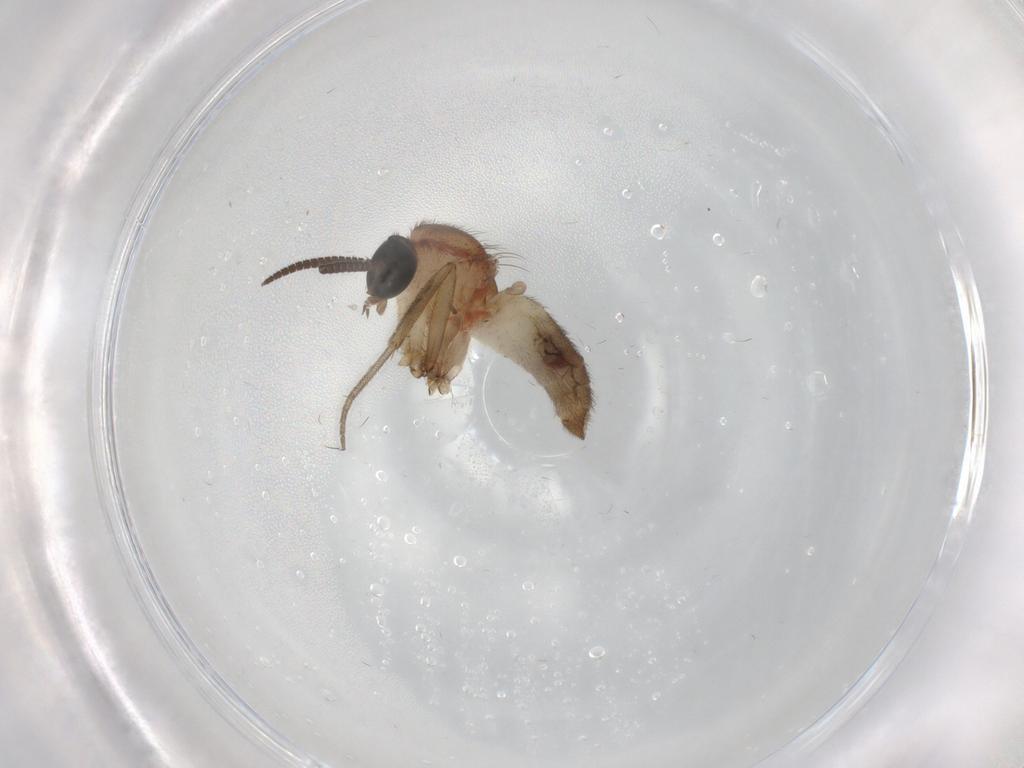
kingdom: Animalia
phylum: Arthropoda
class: Insecta
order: Diptera
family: Psychodidae
